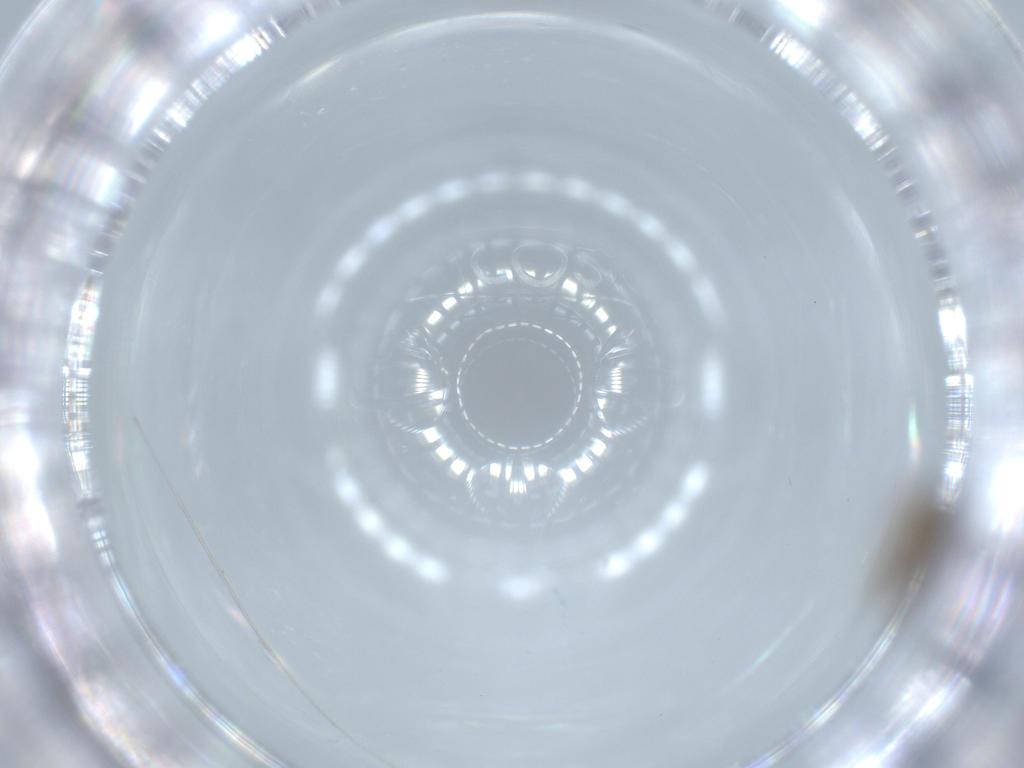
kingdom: Animalia
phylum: Arthropoda
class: Insecta
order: Diptera
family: Psychodidae
